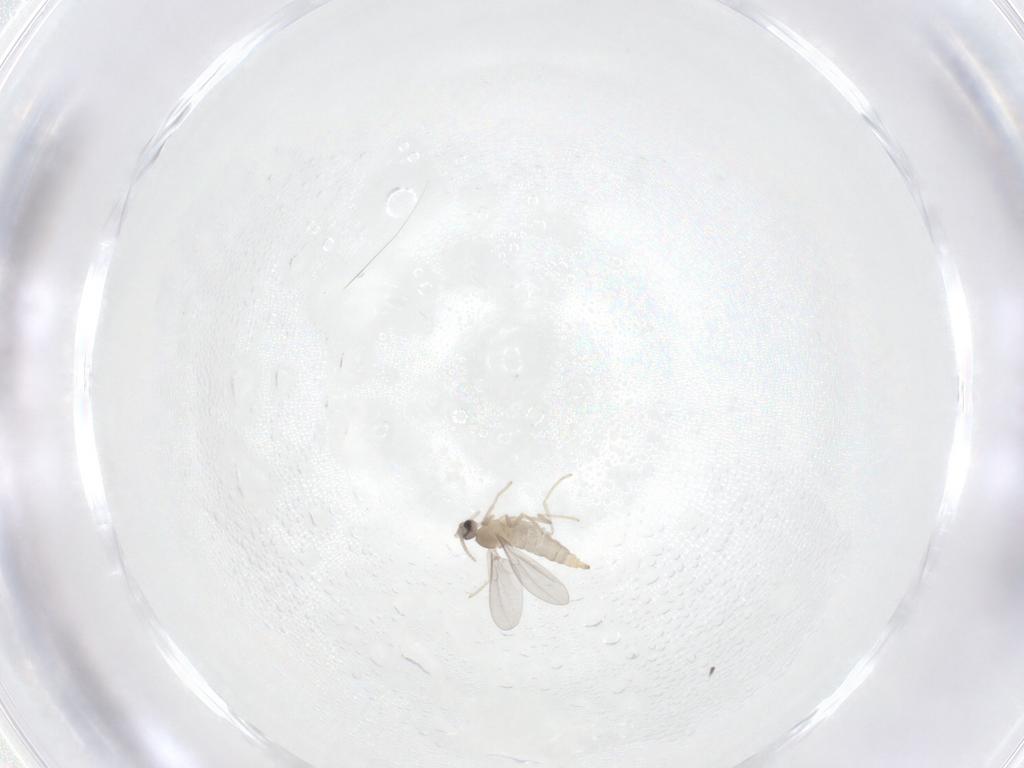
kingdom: Animalia
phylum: Arthropoda
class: Insecta
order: Diptera
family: Chironomidae
